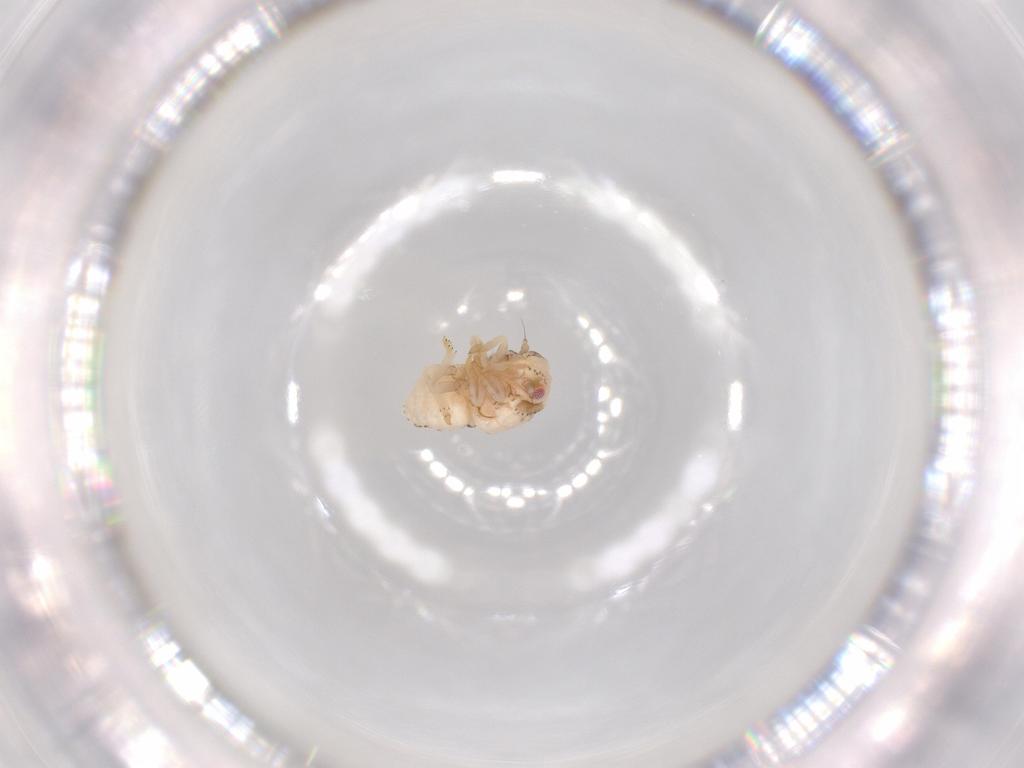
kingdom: Animalia
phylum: Arthropoda
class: Insecta
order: Hemiptera
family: Acanaloniidae
